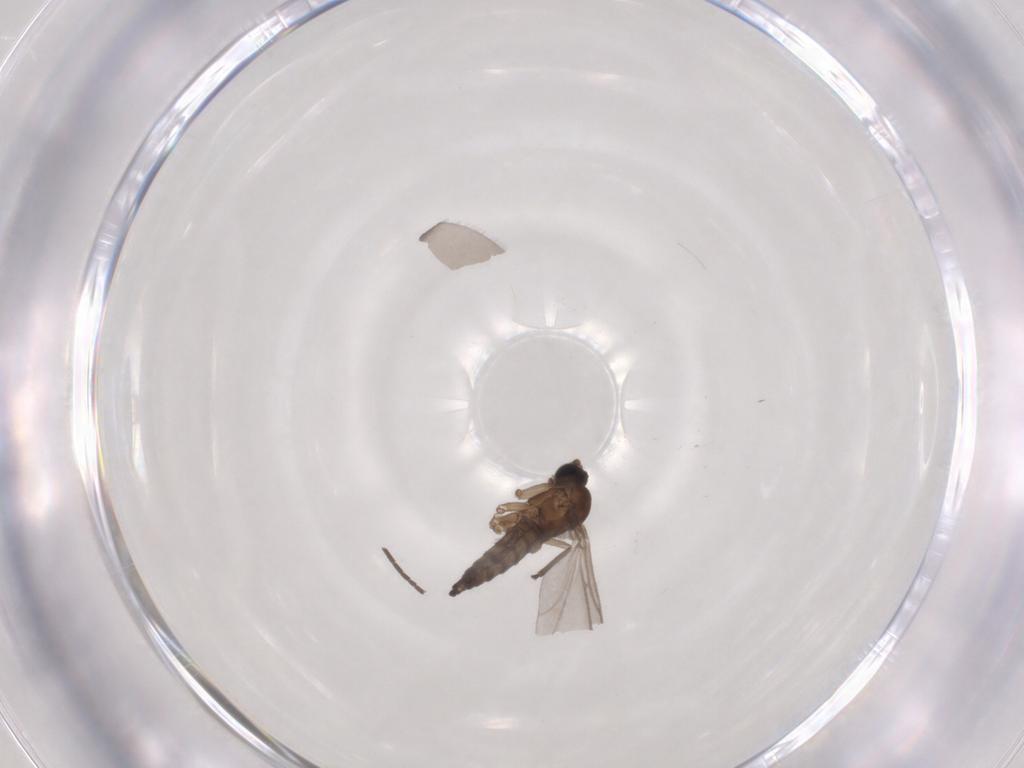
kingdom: Animalia
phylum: Arthropoda
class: Insecta
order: Diptera
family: Sciaridae
